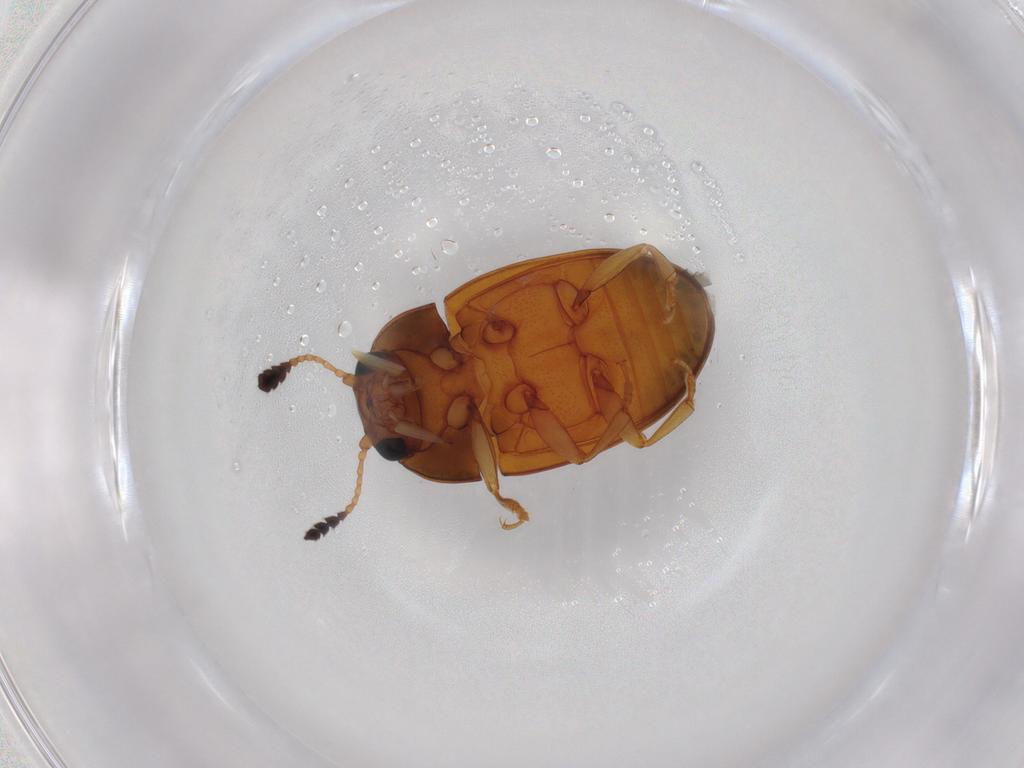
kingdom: Animalia
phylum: Arthropoda
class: Insecta
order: Coleoptera
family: Erotylidae
